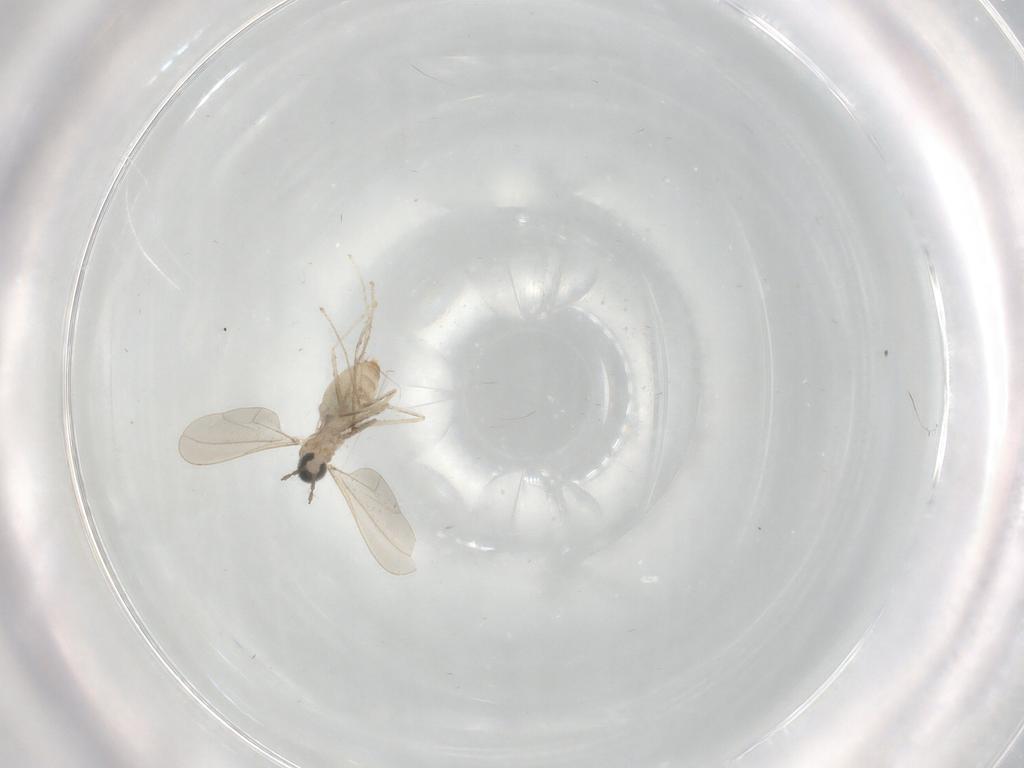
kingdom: Animalia
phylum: Arthropoda
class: Insecta
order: Diptera
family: Cecidomyiidae
